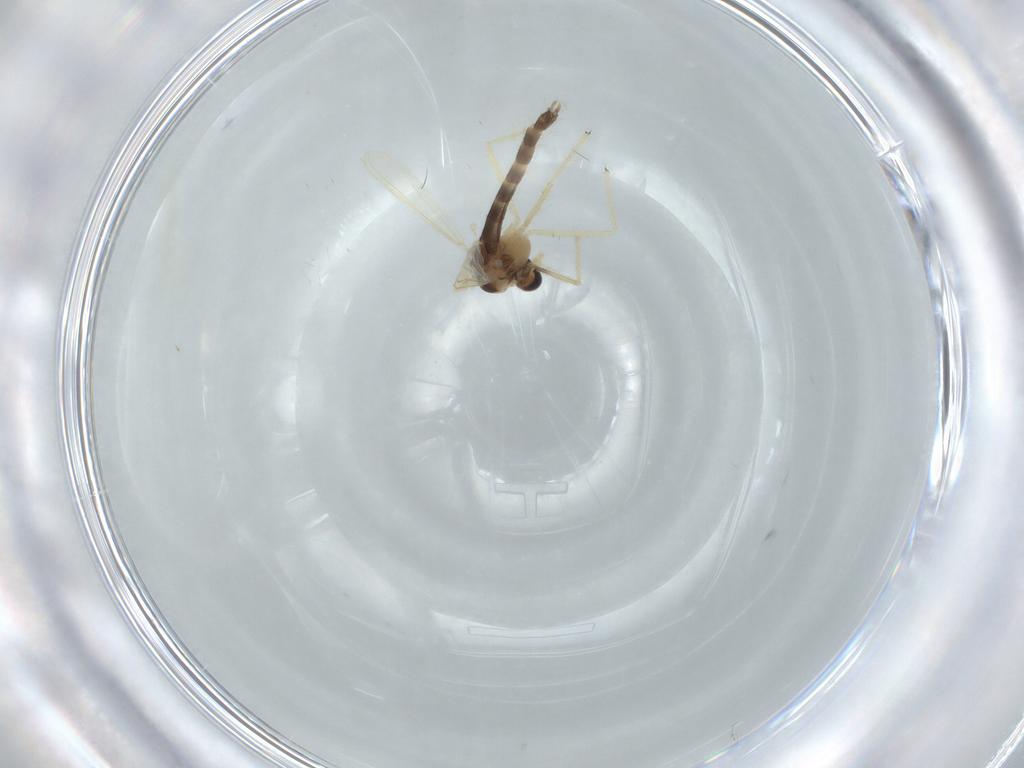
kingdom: Animalia
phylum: Arthropoda
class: Insecta
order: Diptera
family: Chironomidae
